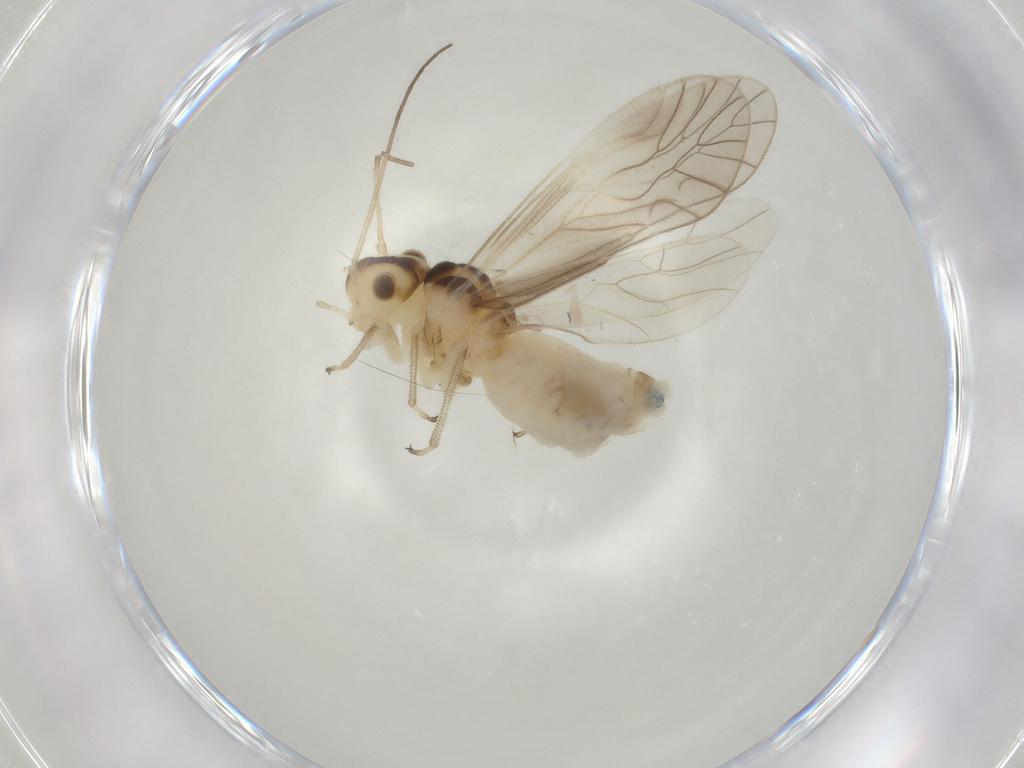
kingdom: Animalia
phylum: Arthropoda
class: Insecta
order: Psocodea
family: Caeciliusidae
